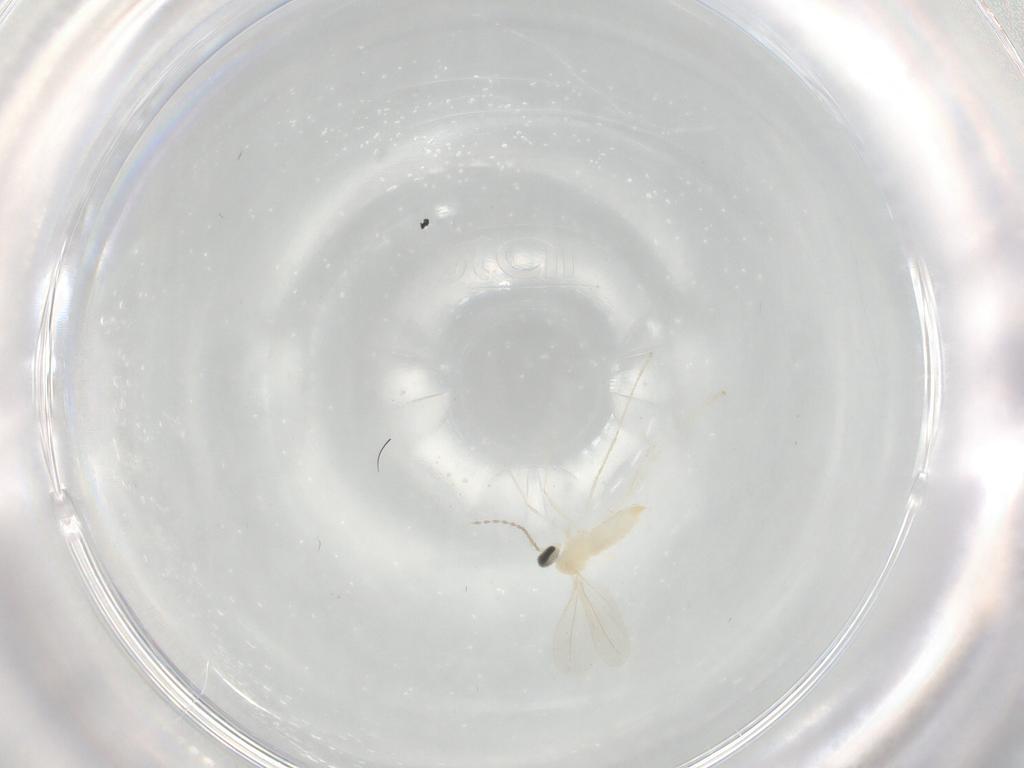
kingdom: Animalia
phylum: Arthropoda
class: Insecta
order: Diptera
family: Cecidomyiidae
